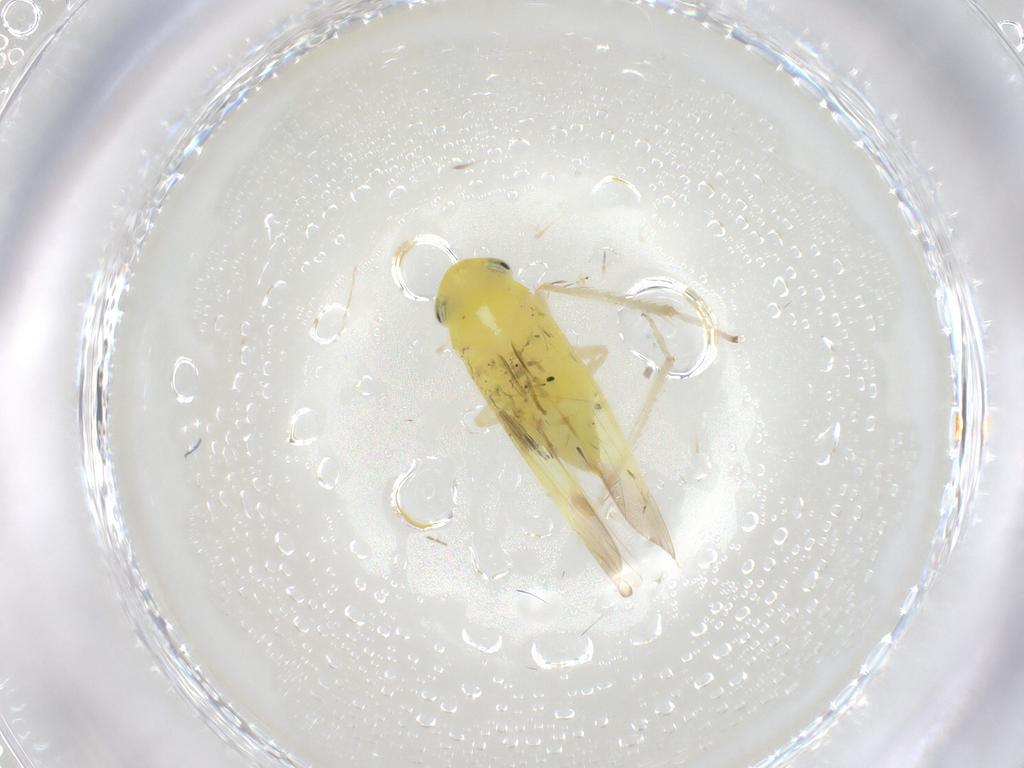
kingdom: Animalia
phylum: Arthropoda
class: Insecta
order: Hemiptera
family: Cicadellidae
